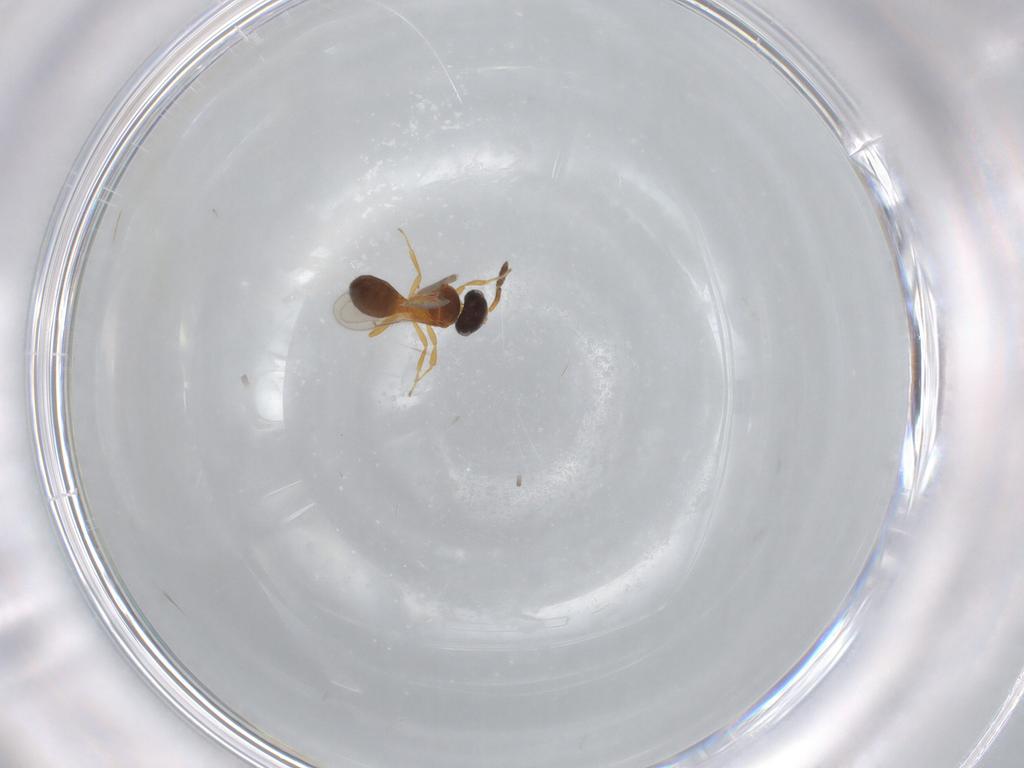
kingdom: Animalia
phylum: Arthropoda
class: Insecta
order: Hymenoptera
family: Scelionidae
